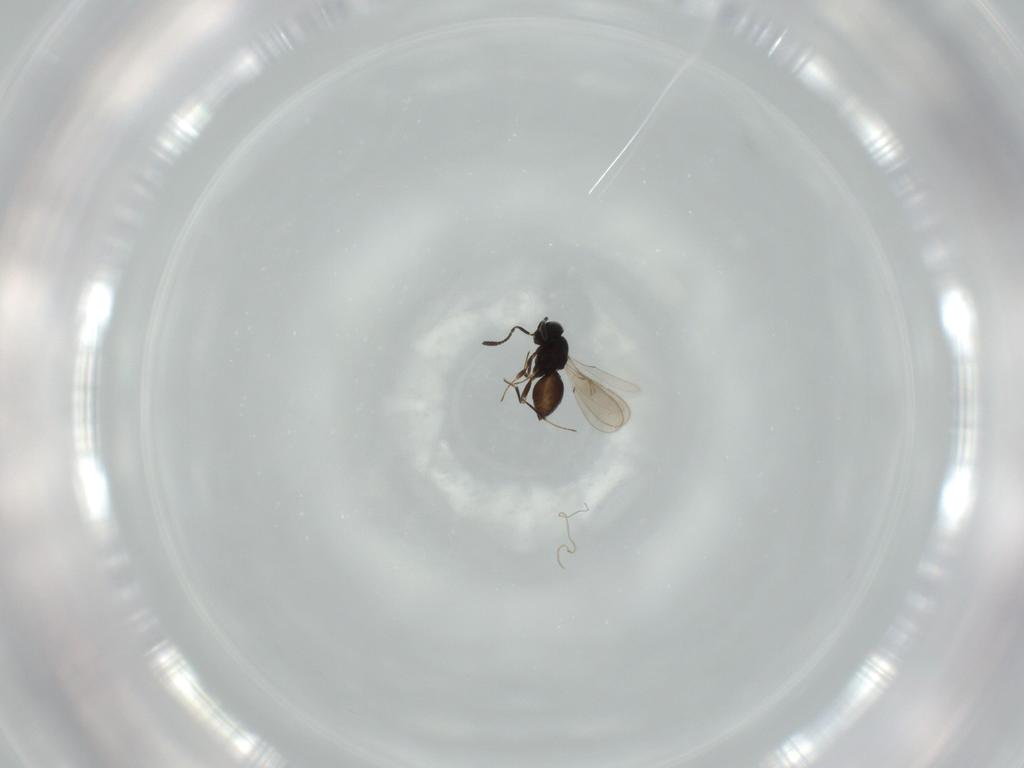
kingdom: Animalia
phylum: Arthropoda
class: Insecta
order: Hymenoptera
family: Scelionidae
